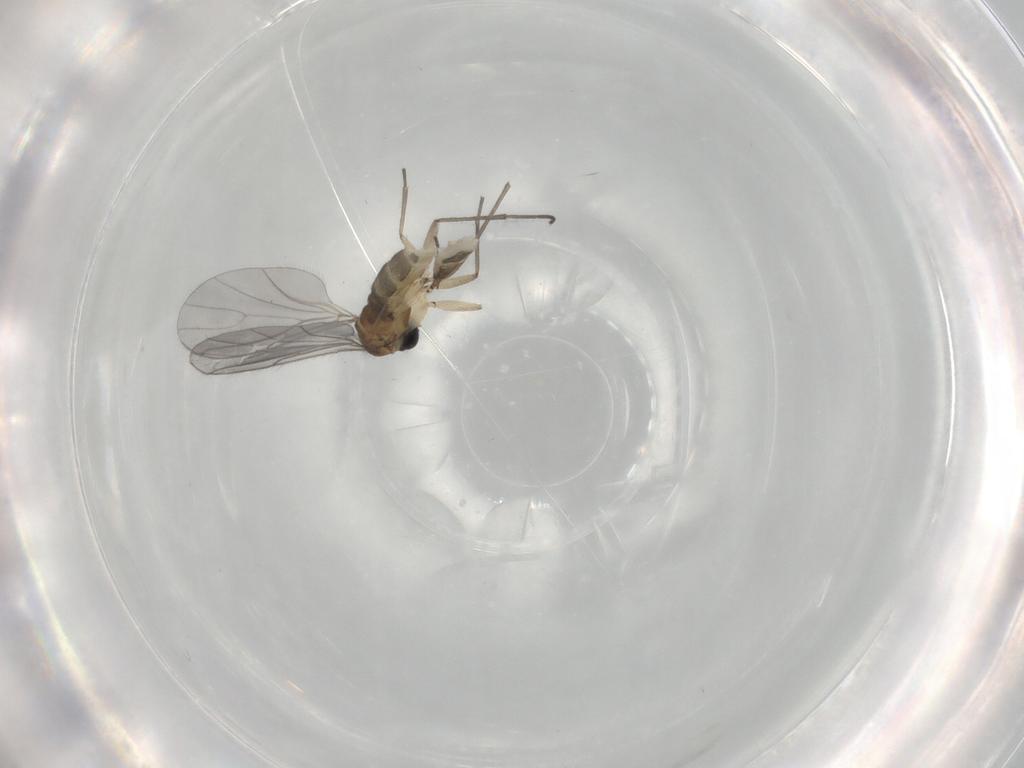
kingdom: Animalia
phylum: Arthropoda
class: Insecta
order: Diptera
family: Sciaridae
